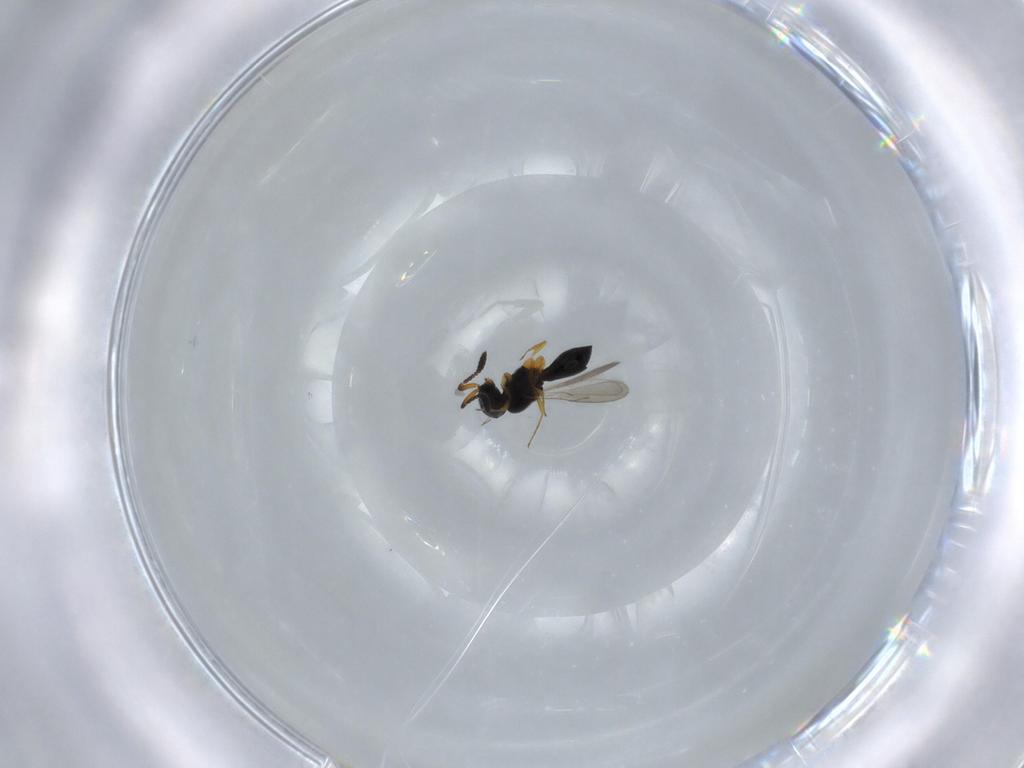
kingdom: Animalia
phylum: Arthropoda
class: Insecta
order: Hymenoptera
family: Scelionidae
